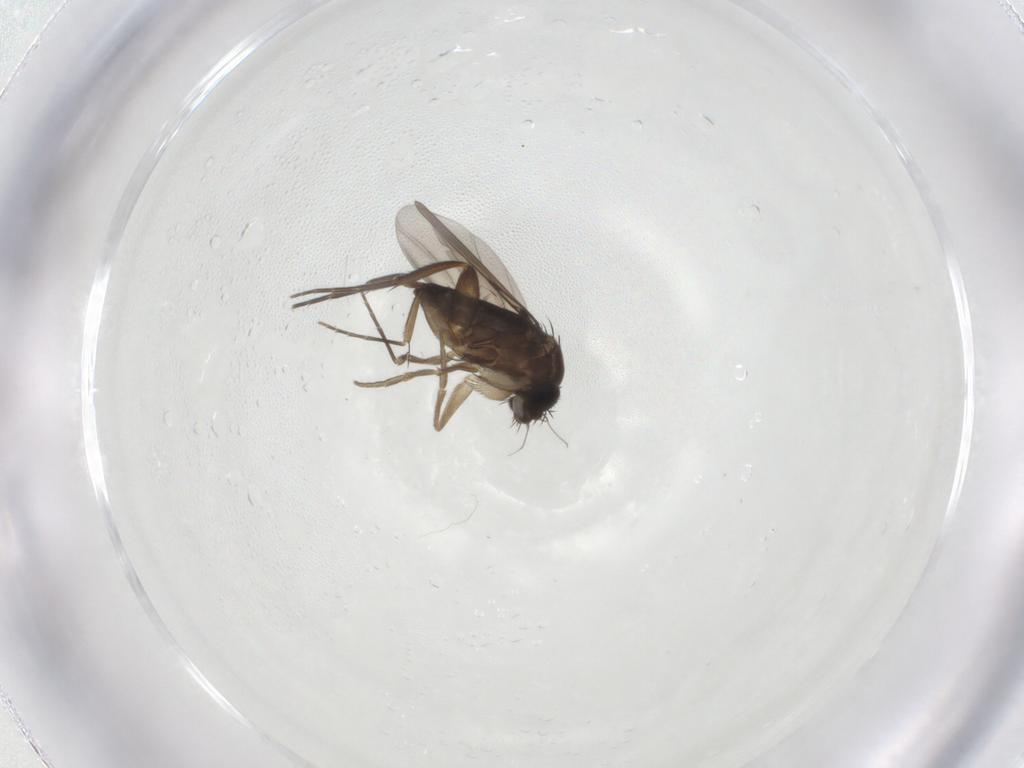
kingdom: Animalia
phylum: Arthropoda
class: Insecta
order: Diptera
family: Phoridae
